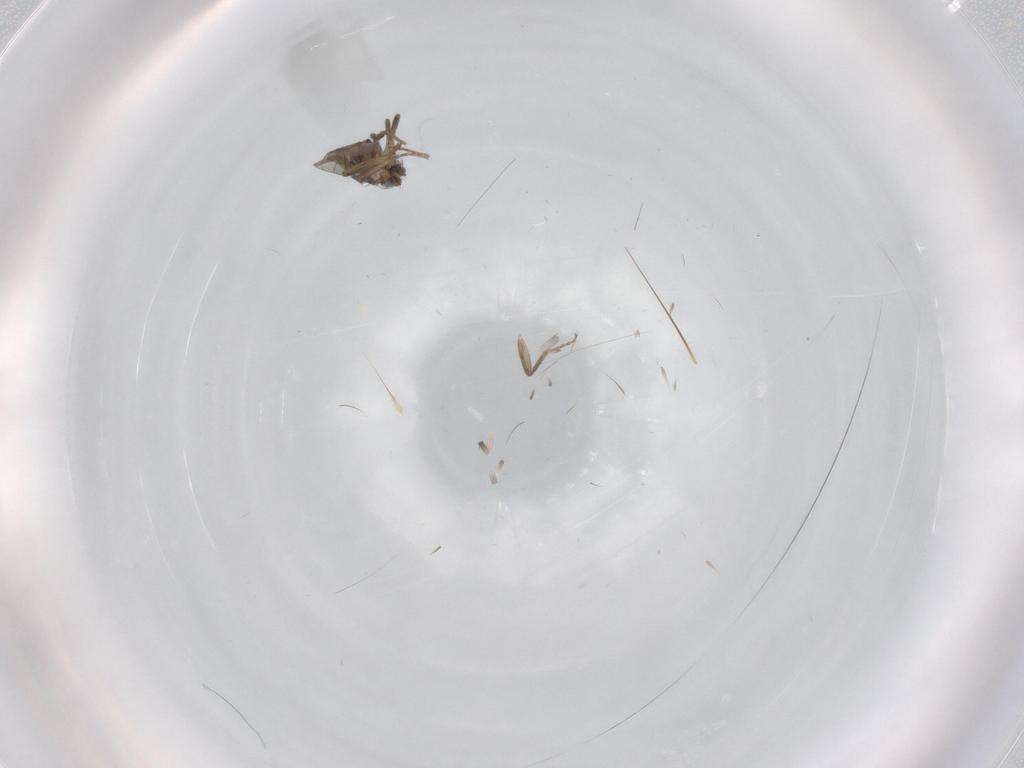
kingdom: Animalia
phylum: Arthropoda
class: Insecta
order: Diptera
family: Phoridae
